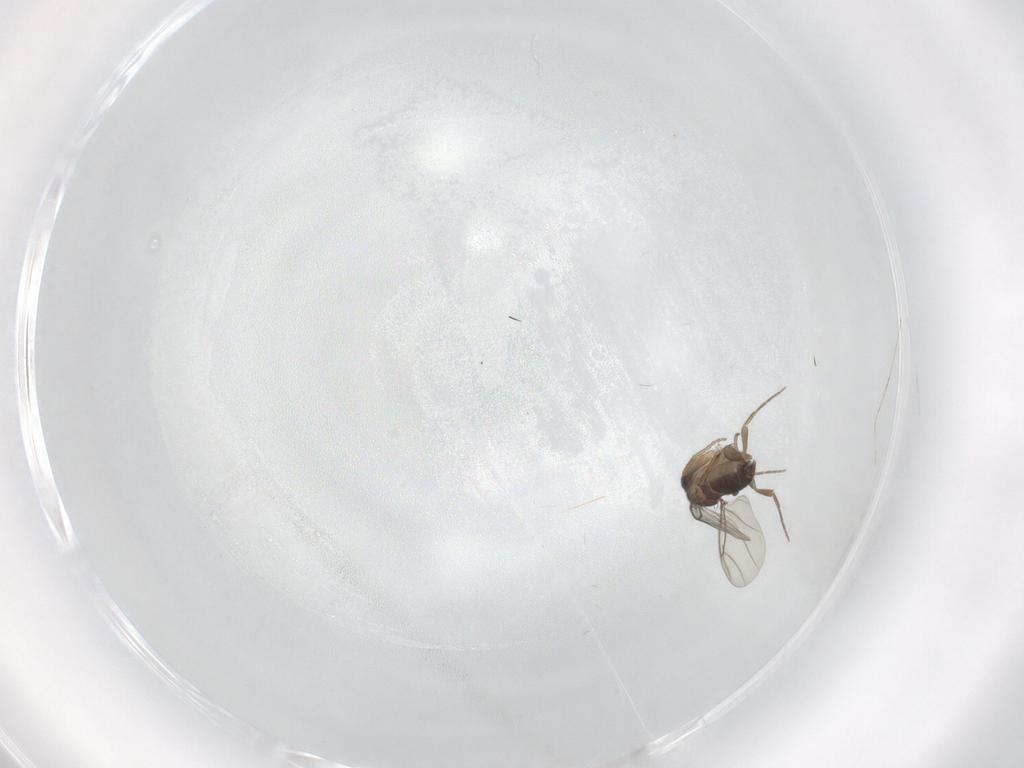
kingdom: Animalia
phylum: Arthropoda
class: Insecta
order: Diptera
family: Phoridae
